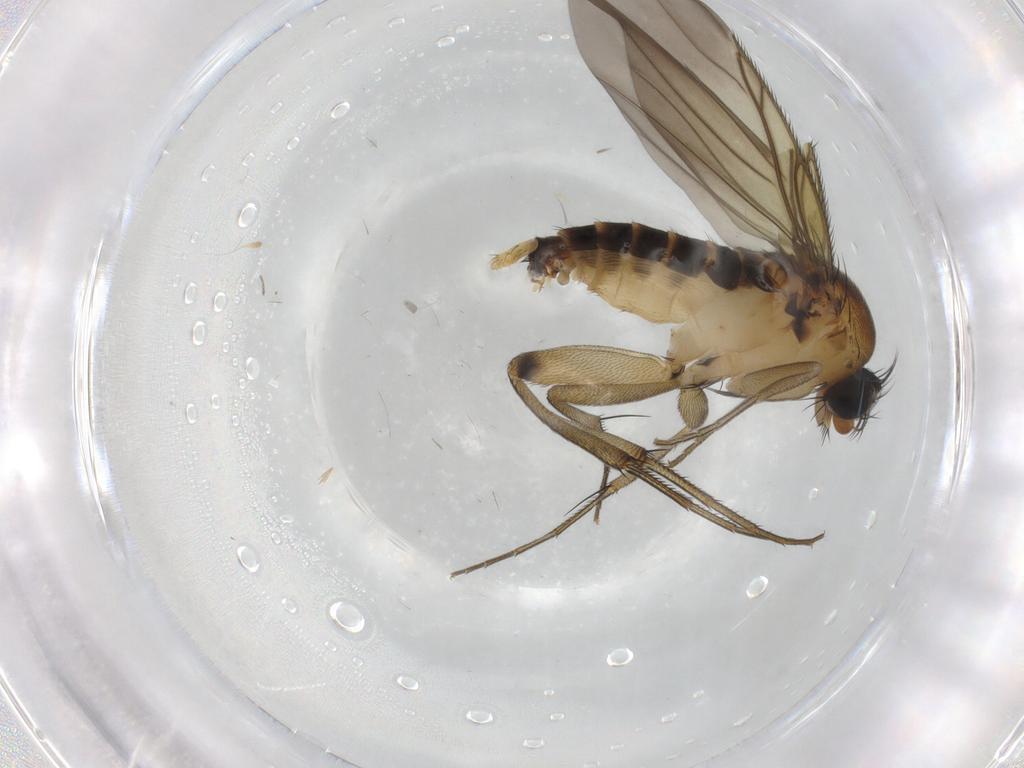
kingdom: Animalia
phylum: Arthropoda
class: Insecta
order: Diptera
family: Phoridae
